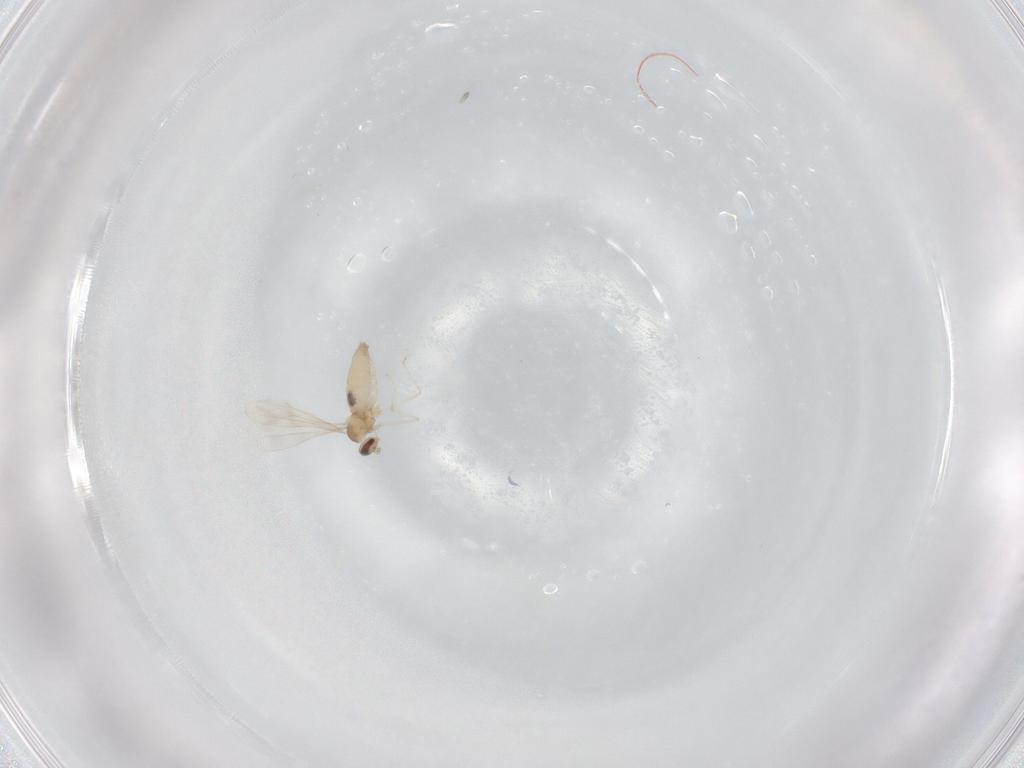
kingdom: Animalia
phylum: Arthropoda
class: Insecta
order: Diptera
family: Cecidomyiidae
